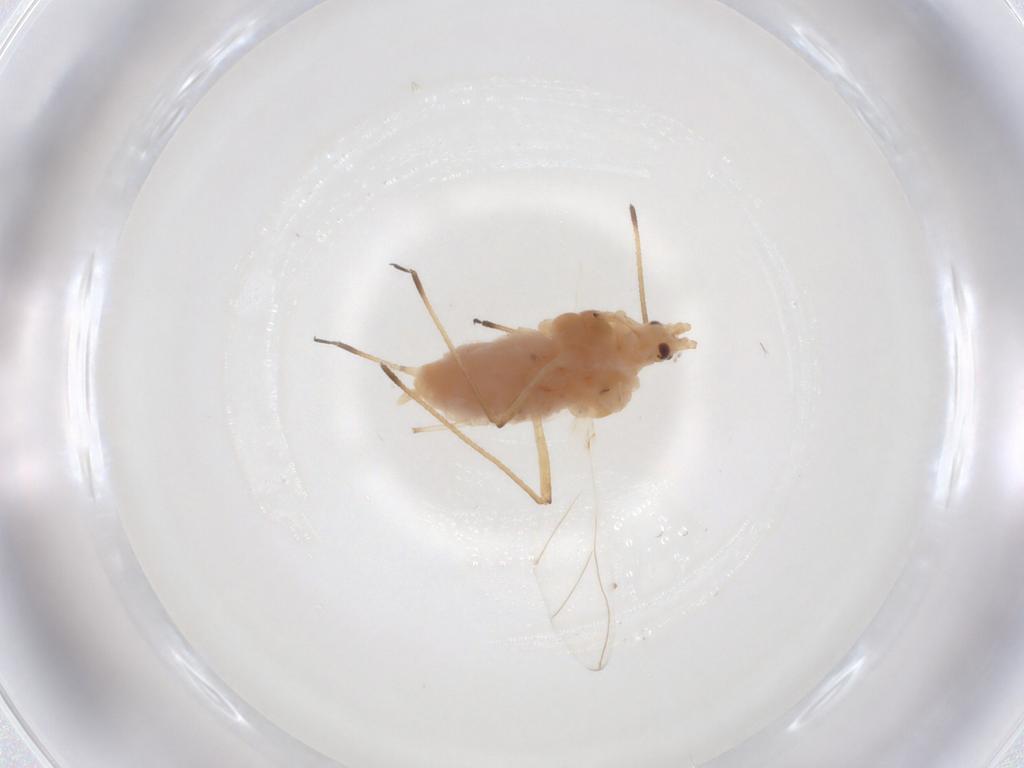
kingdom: Animalia
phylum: Arthropoda
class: Insecta
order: Hemiptera
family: Aphididae
